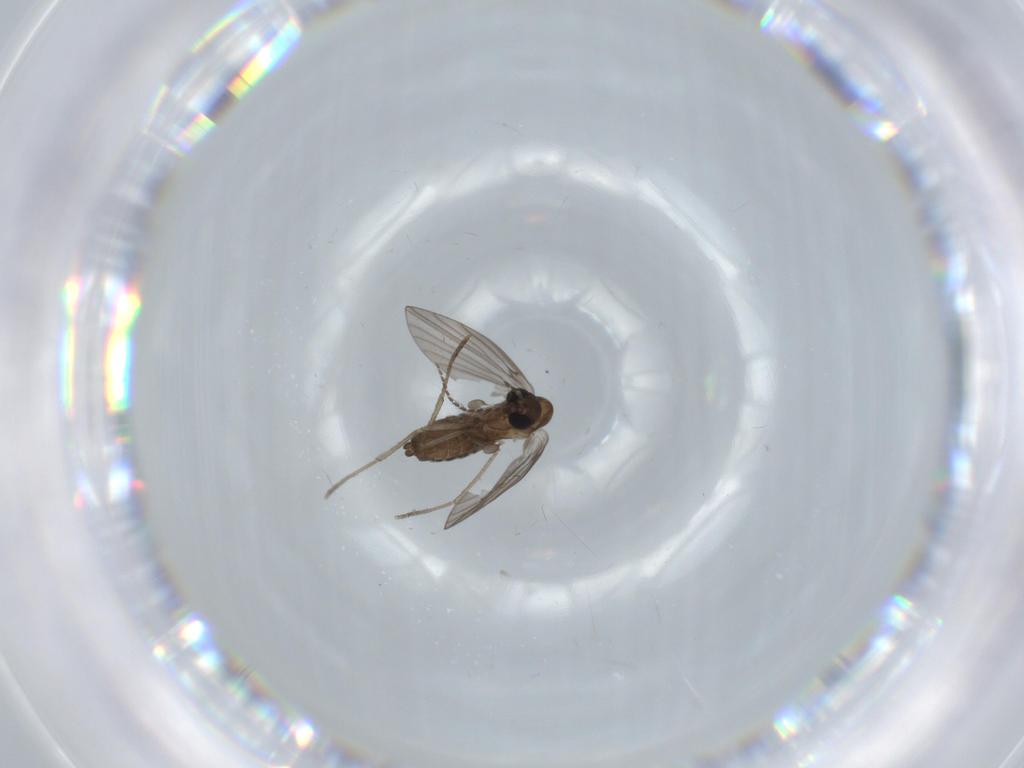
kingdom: Animalia
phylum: Arthropoda
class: Insecta
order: Diptera
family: Psychodidae
